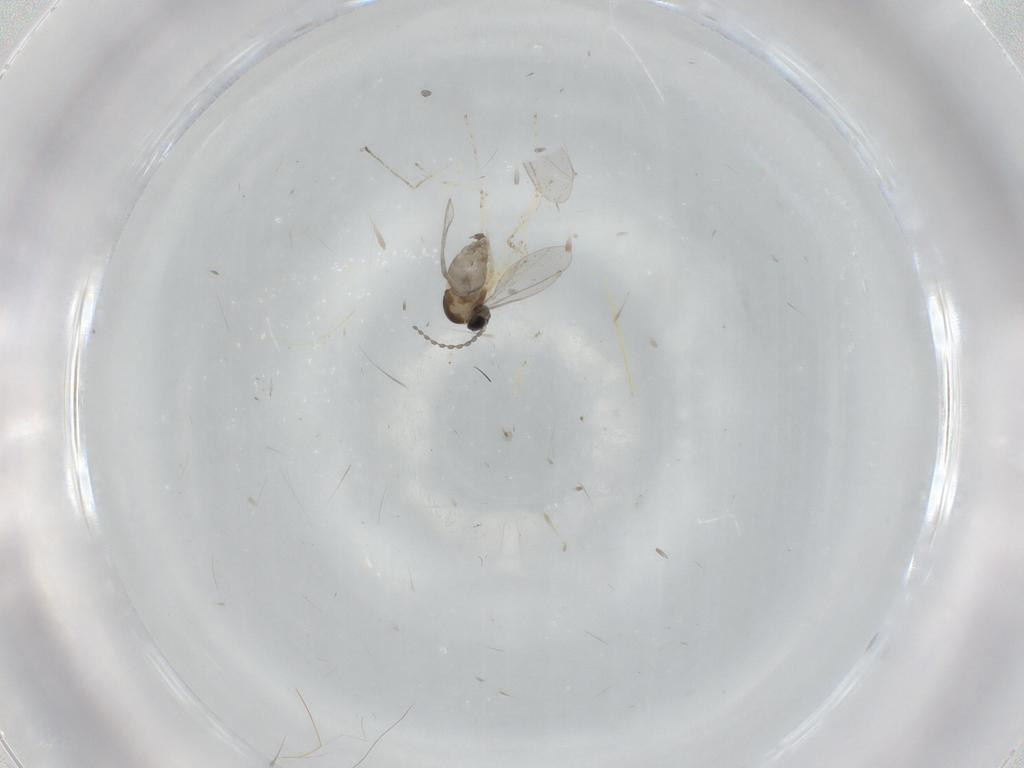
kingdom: Animalia
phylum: Arthropoda
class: Insecta
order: Diptera
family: Cecidomyiidae
